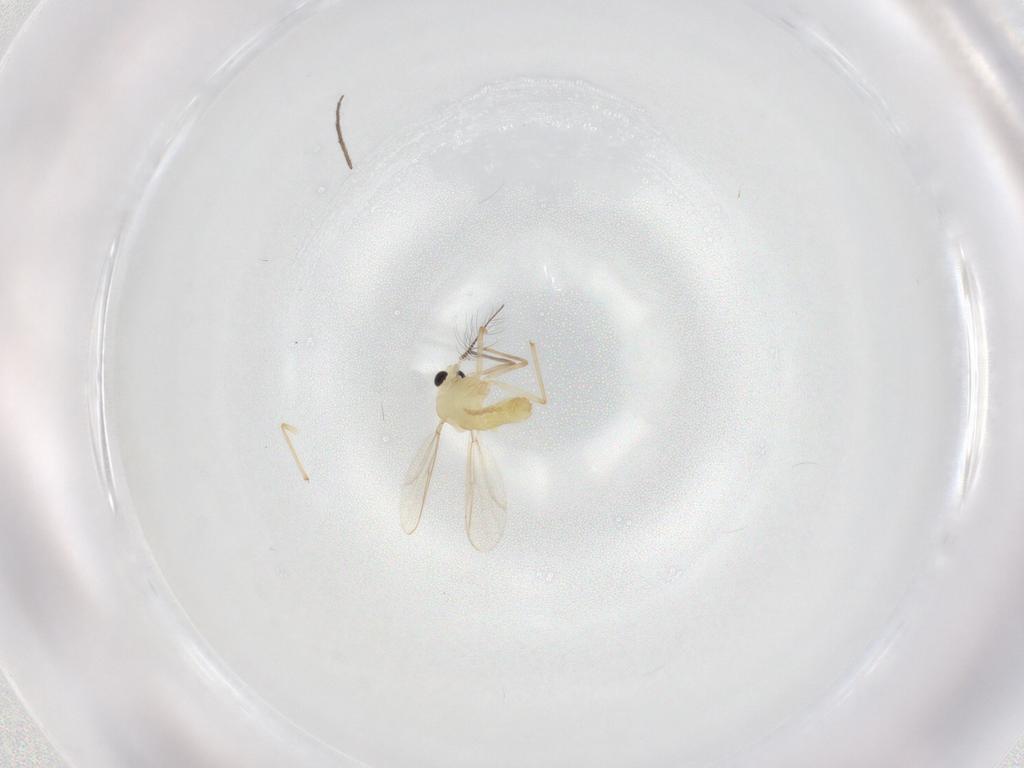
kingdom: Animalia
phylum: Arthropoda
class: Insecta
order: Diptera
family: Chironomidae
